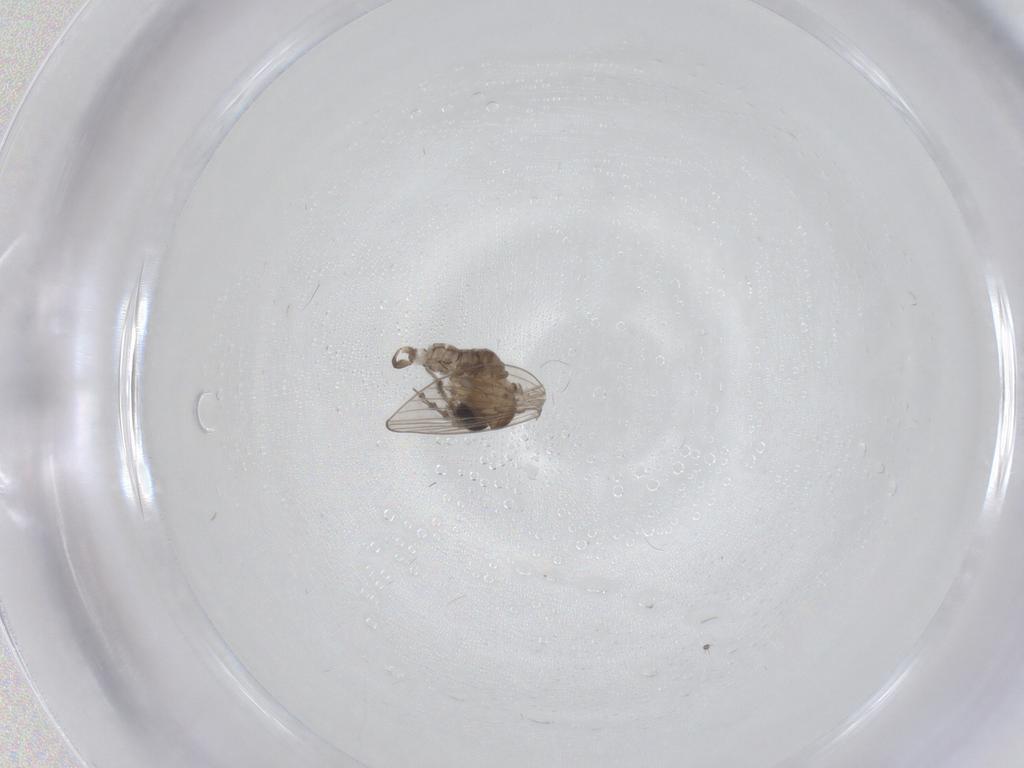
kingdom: Animalia
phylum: Arthropoda
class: Insecta
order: Diptera
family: Psychodidae
